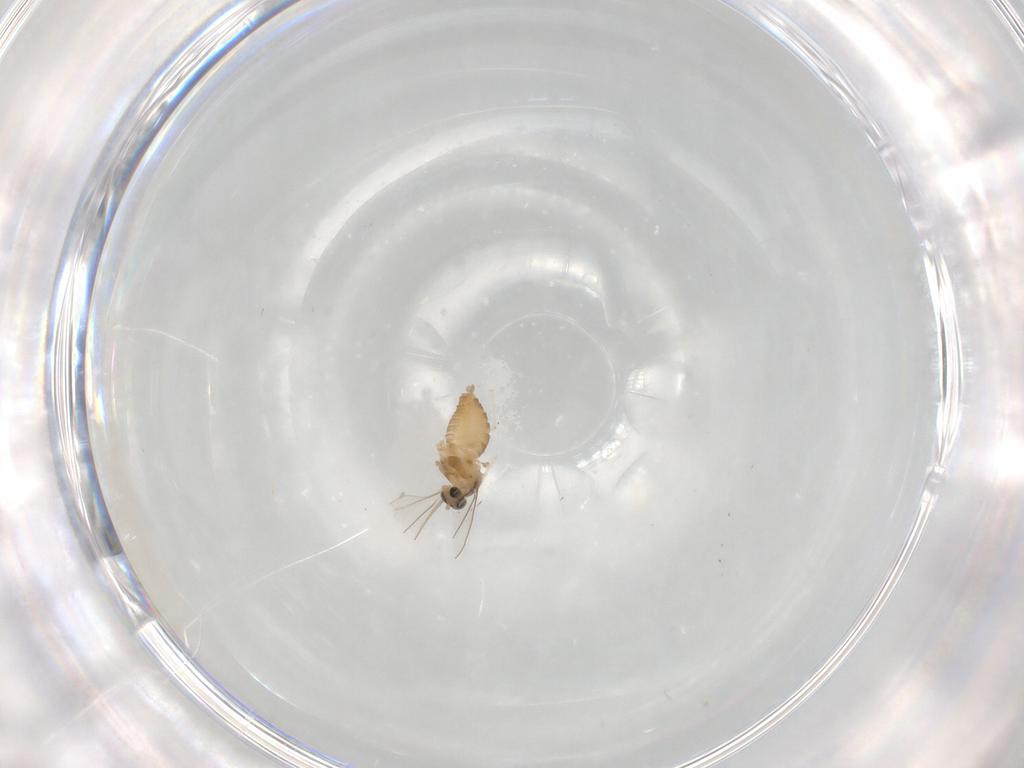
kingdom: Animalia
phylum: Arthropoda
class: Insecta
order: Diptera
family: Cecidomyiidae
